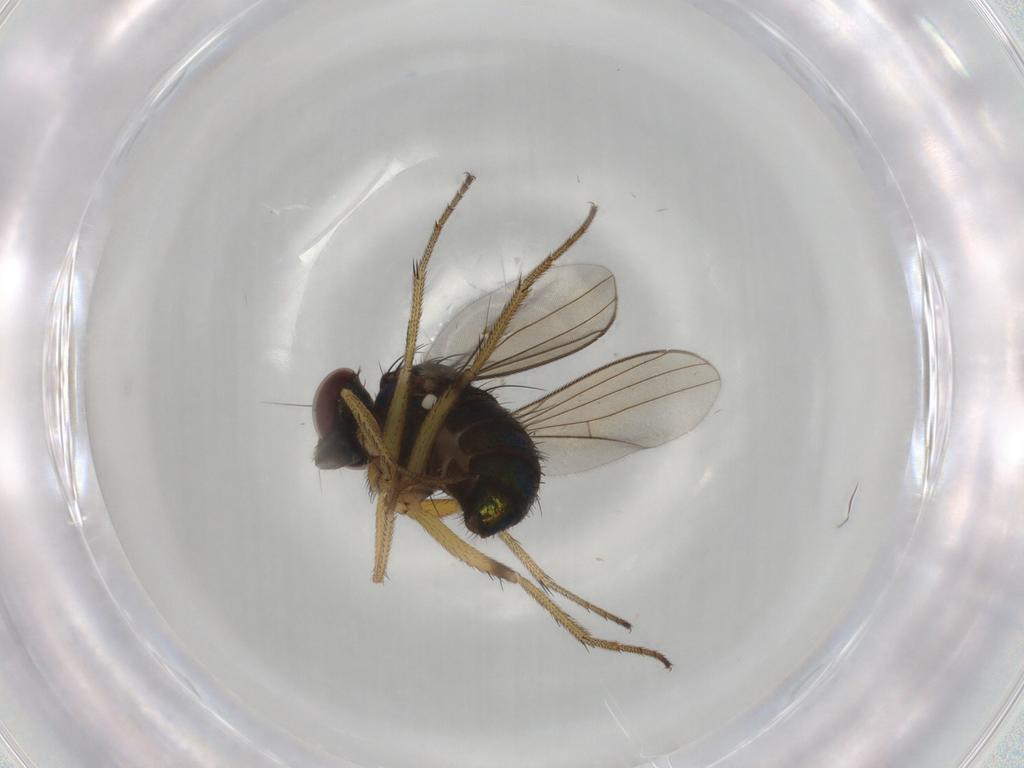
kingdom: Animalia
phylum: Arthropoda
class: Insecta
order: Diptera
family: Dolichopodidae
